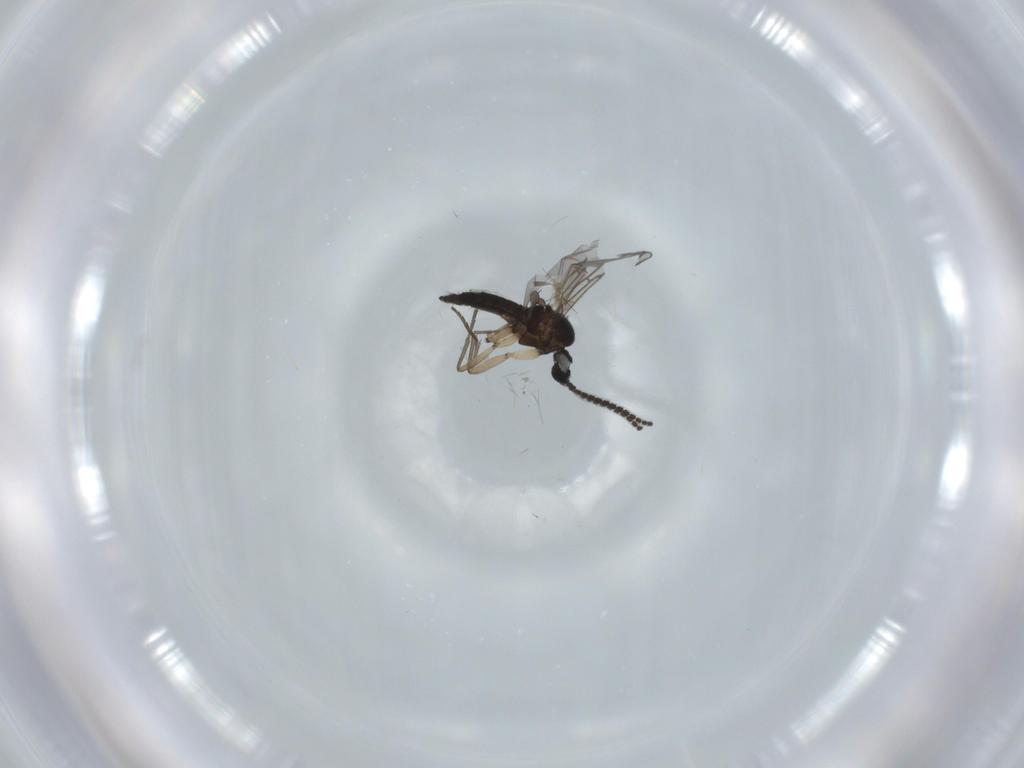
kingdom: Animalia
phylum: Arthropoda
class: Insecta
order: Diptera
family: Sciaridae
